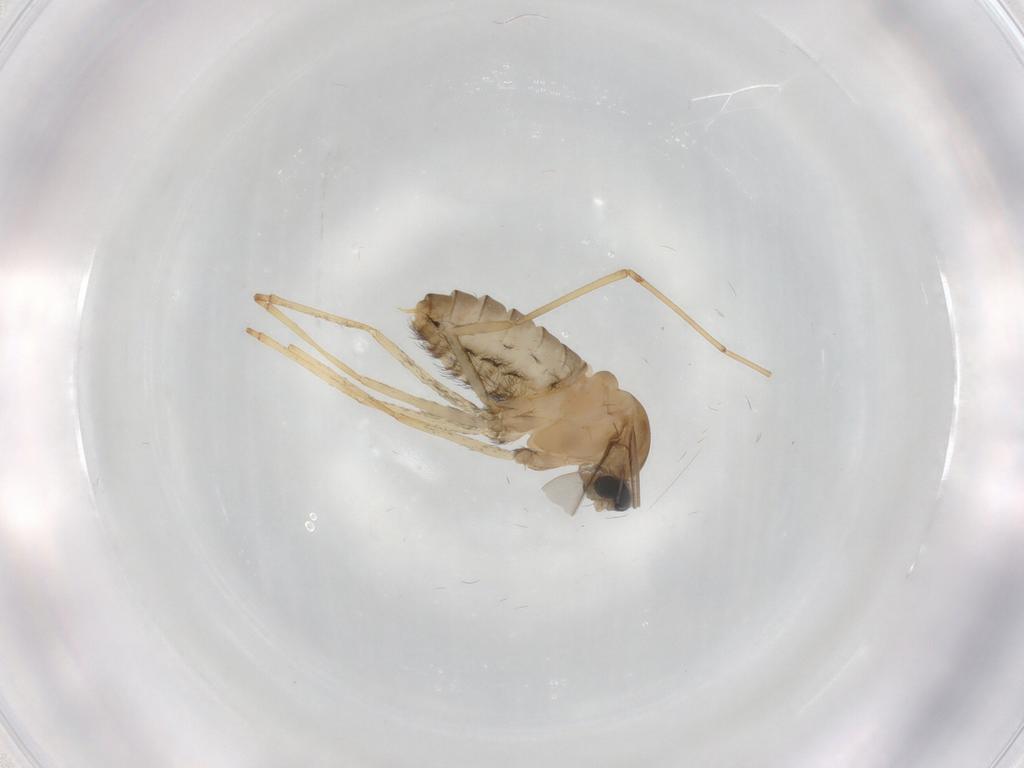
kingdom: Animalia
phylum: Arthropoda
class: Insecta
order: Diptera
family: Cecidomyiidae
